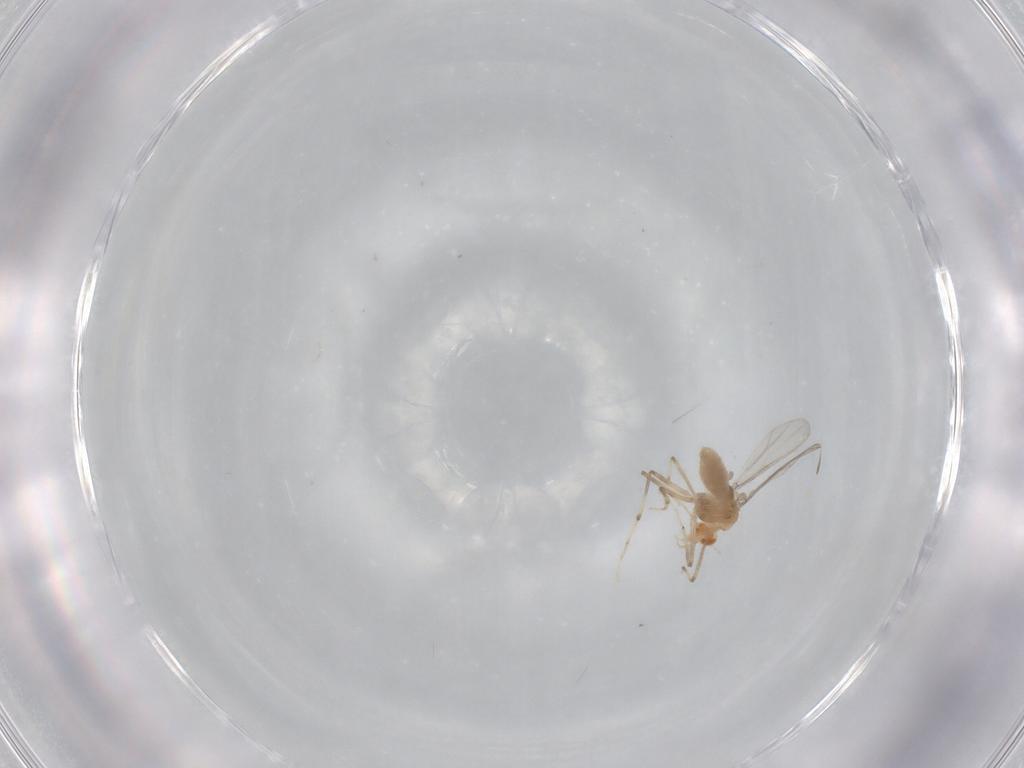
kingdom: Animalia
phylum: Arthropoda
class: Insecta
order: Diptera
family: Chironomidae
